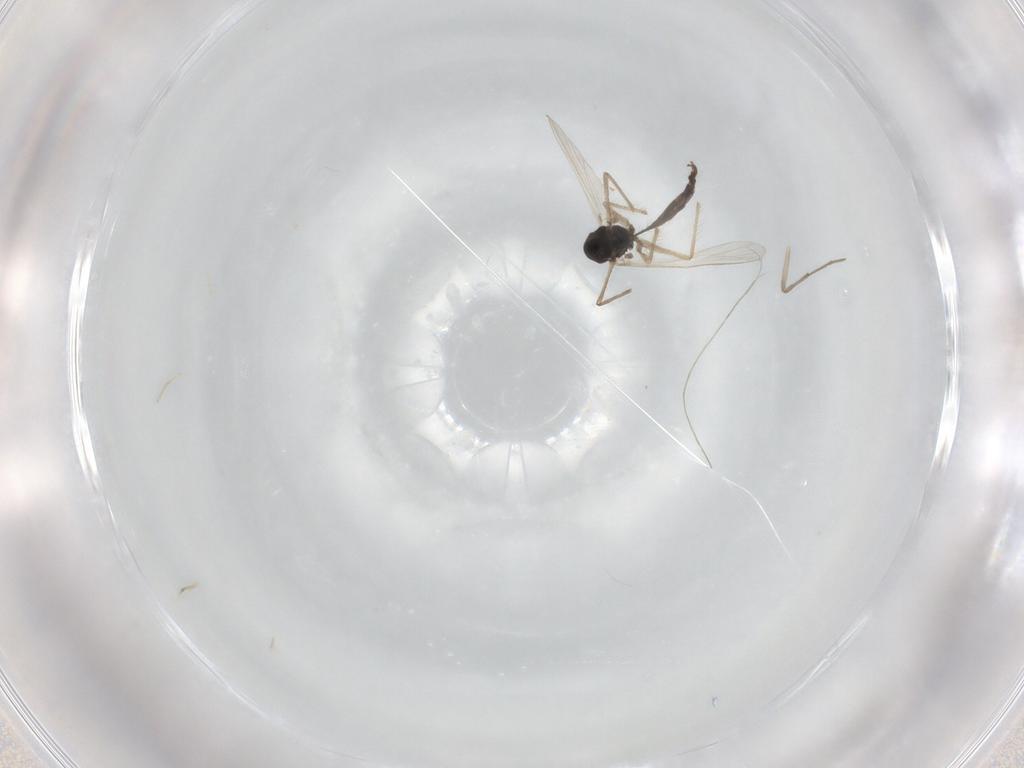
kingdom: Animalia
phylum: Arthropoda
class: Insecta
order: Diptera
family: Chironomidae
